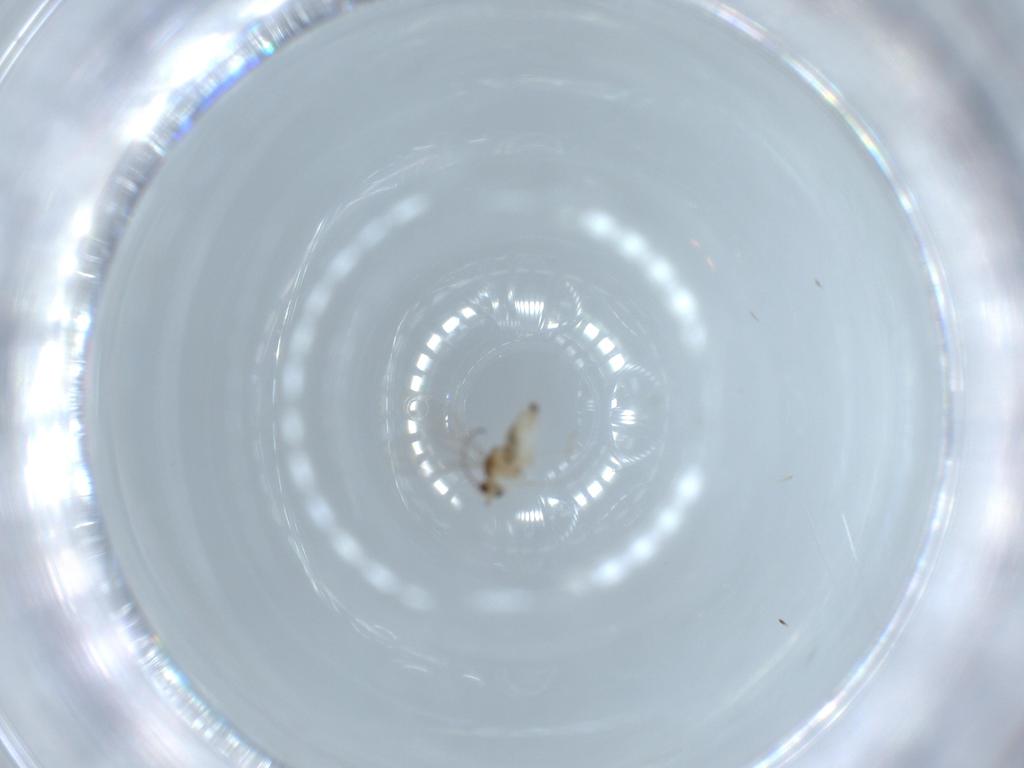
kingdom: Animalia
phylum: Arthropoda
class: Insecta
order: Diptera
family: Cecidomyiidae
